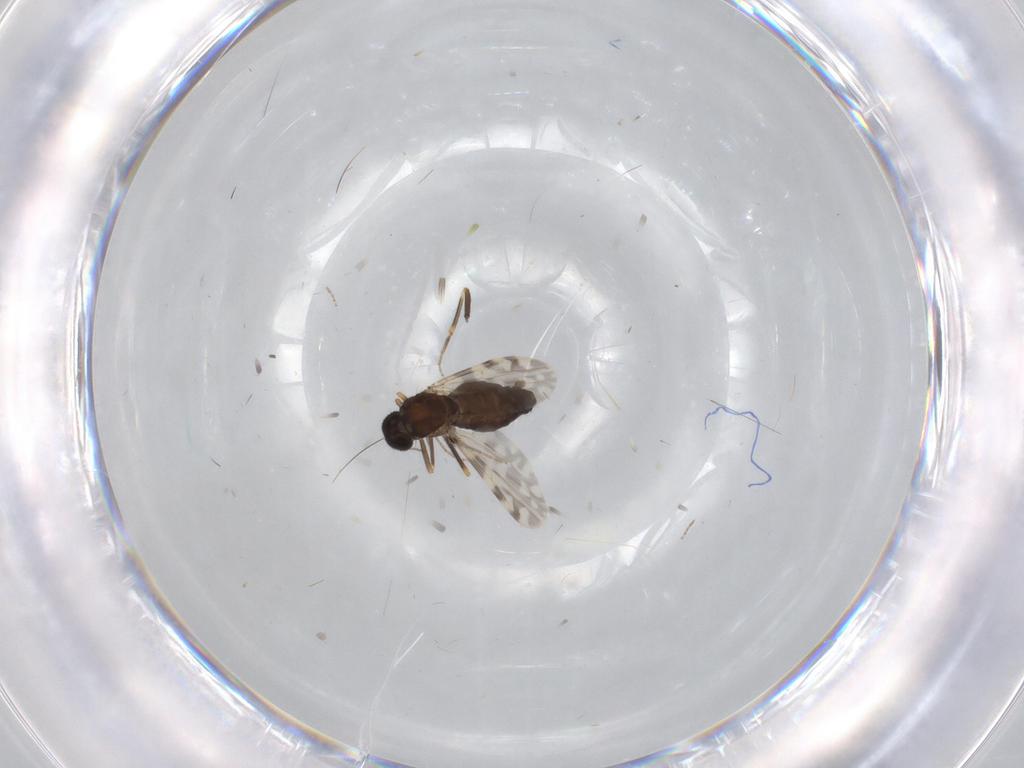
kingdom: Animalia
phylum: Arthropoda
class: Insecta
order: Diptera
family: Ceratopogonidae
